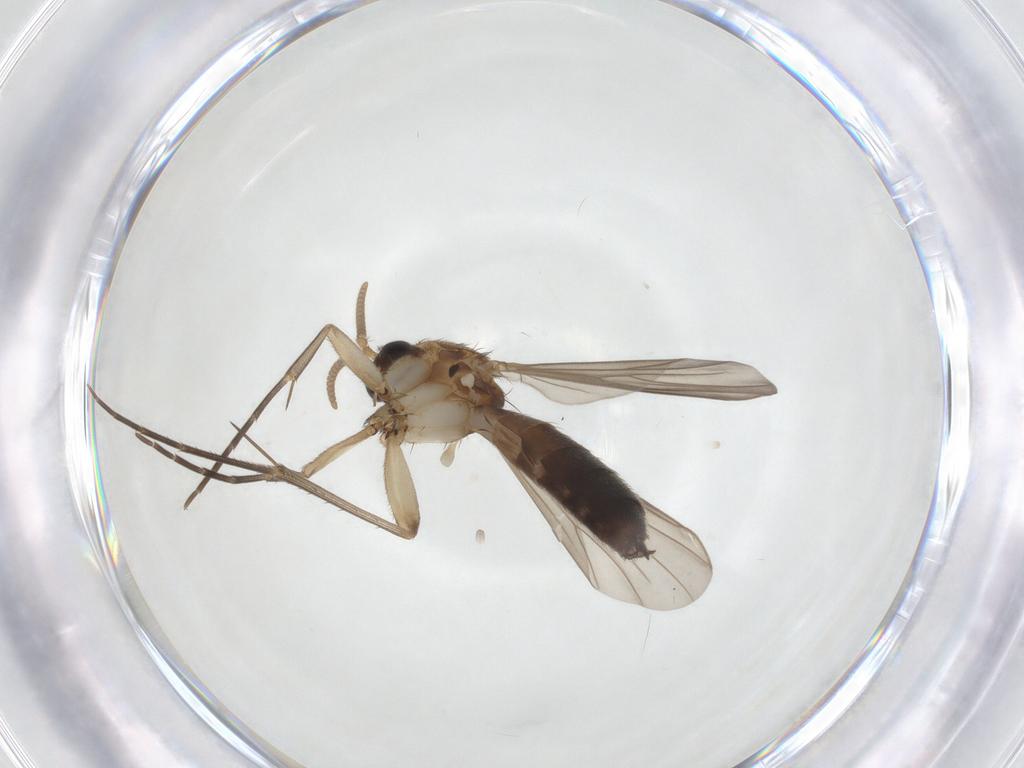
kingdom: Animalia
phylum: Arthropoda
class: Insecta
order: Diptera
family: Mycetophilidae
